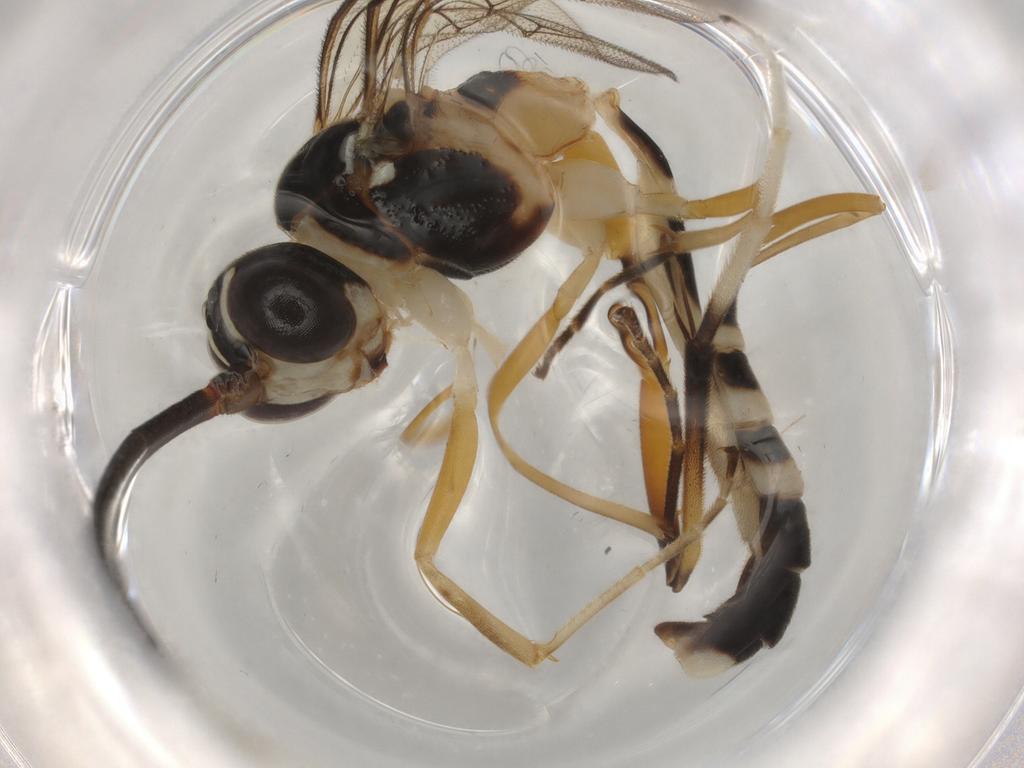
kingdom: Animalia
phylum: Arthropoda
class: Insecta
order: Hymenoptera
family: Ichneumonidae
